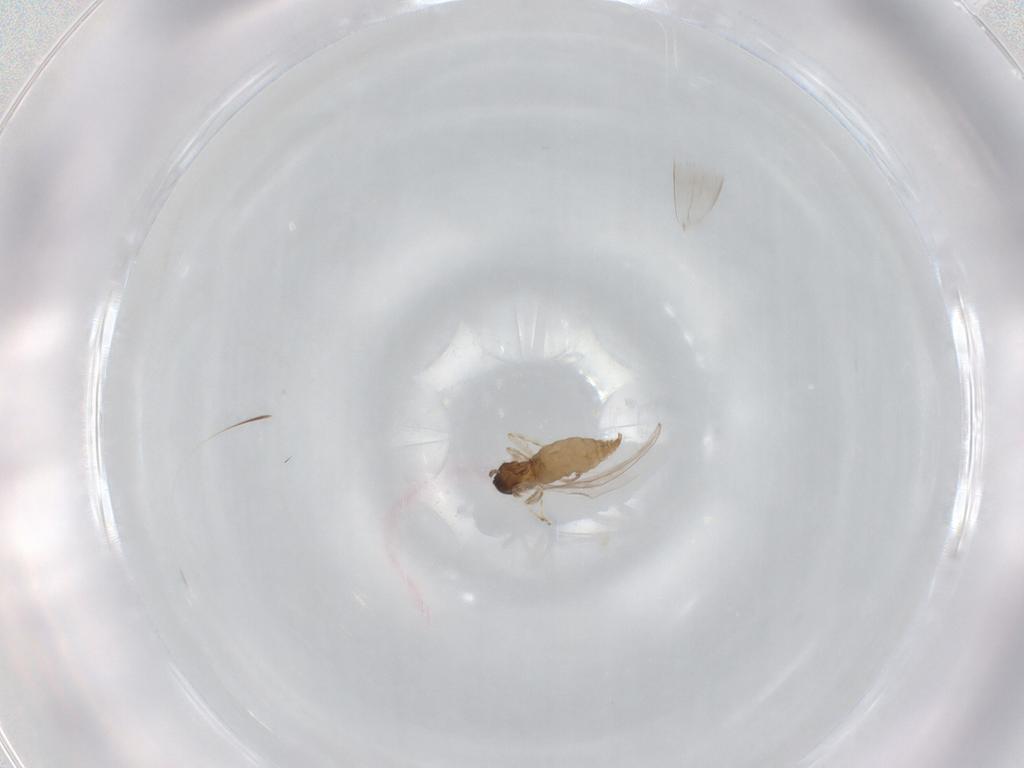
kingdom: Animalia
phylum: Arthropoda
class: Insecta
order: Diptera
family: Cecidomyiidae
